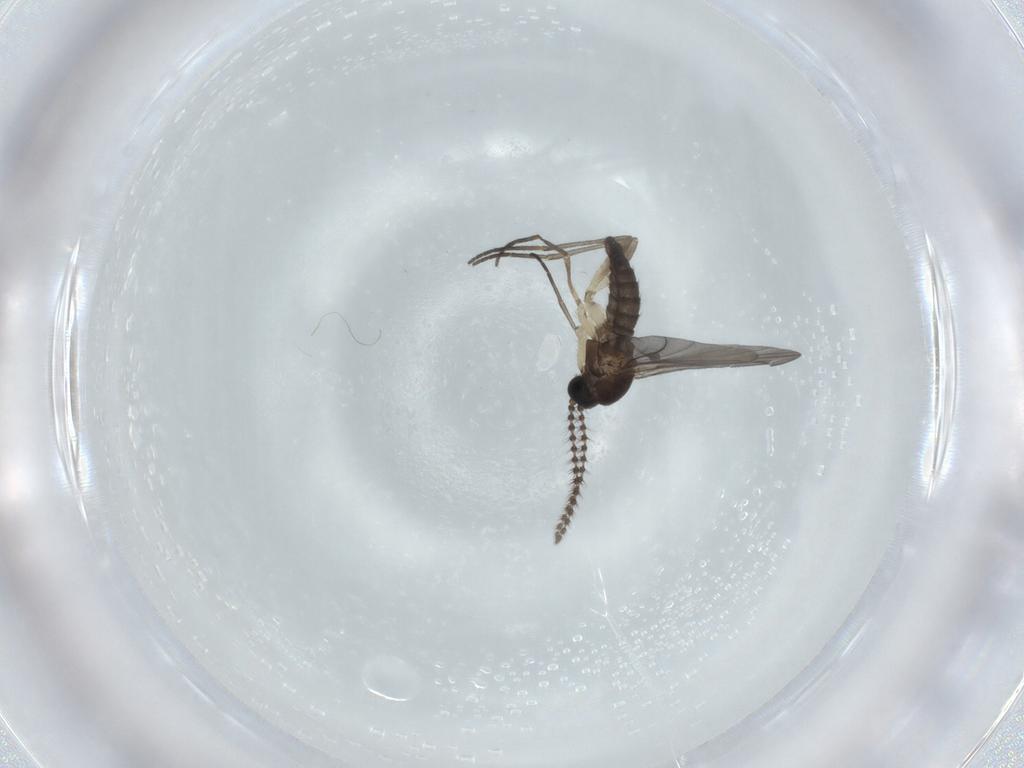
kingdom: Animalia
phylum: Arthropoda
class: Insecta
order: Diptera
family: Sciaridae
